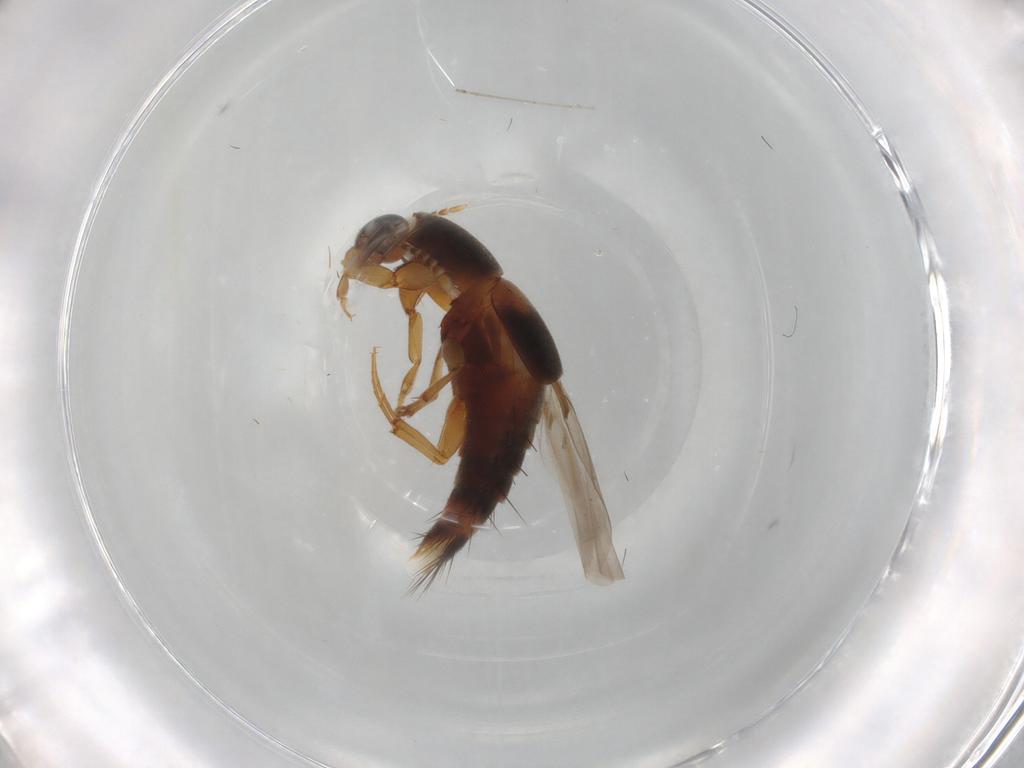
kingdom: Animalia
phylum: Arthropoda
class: Insecta
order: Coleoptera
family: Staphylinidae
